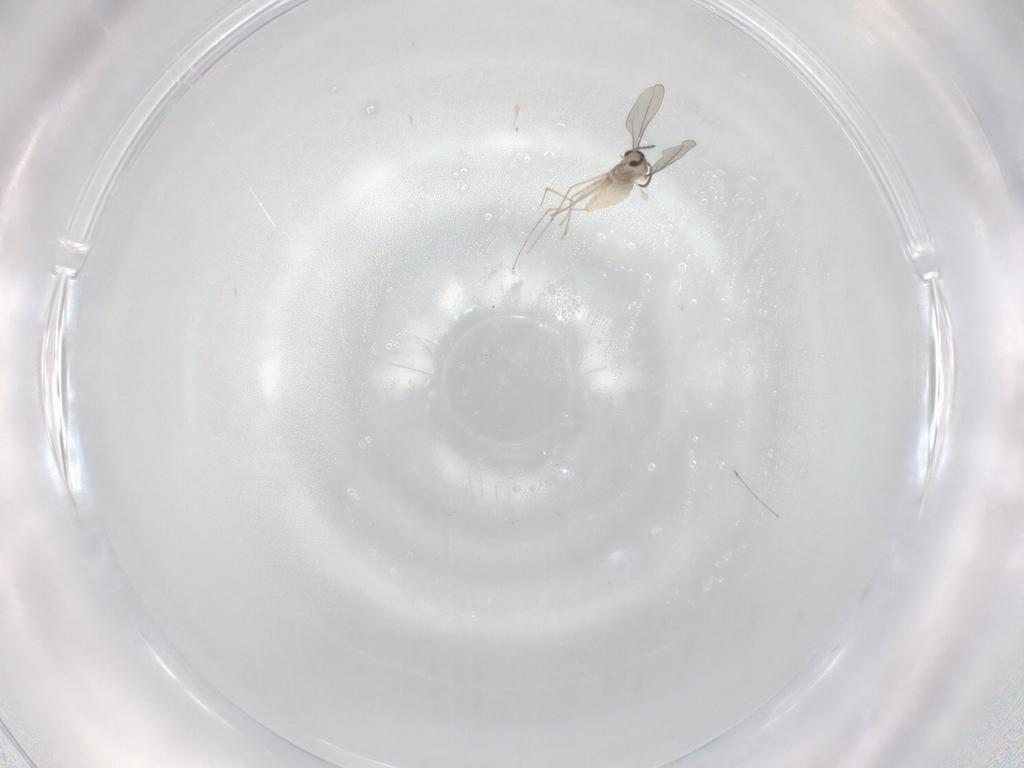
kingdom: Animalia
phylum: Arthropoda
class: Insecta
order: Diptera
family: Cecidomyiidae
